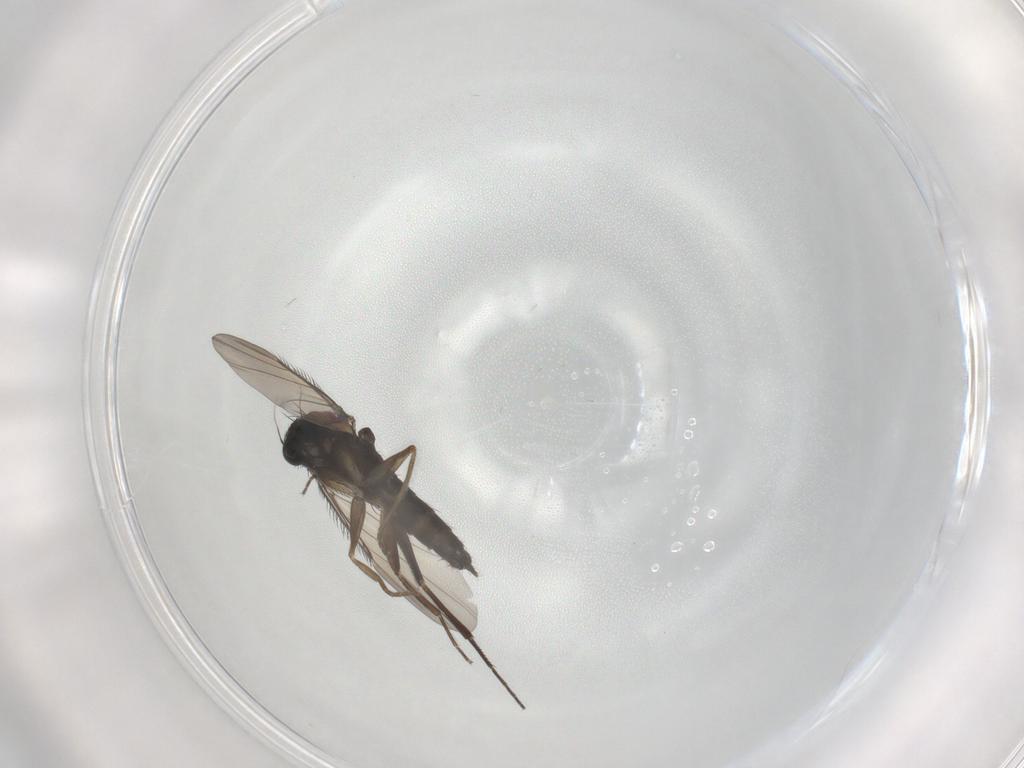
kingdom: Animalia
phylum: Arthropoda
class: Insecta
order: Diptera
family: Phoridae
